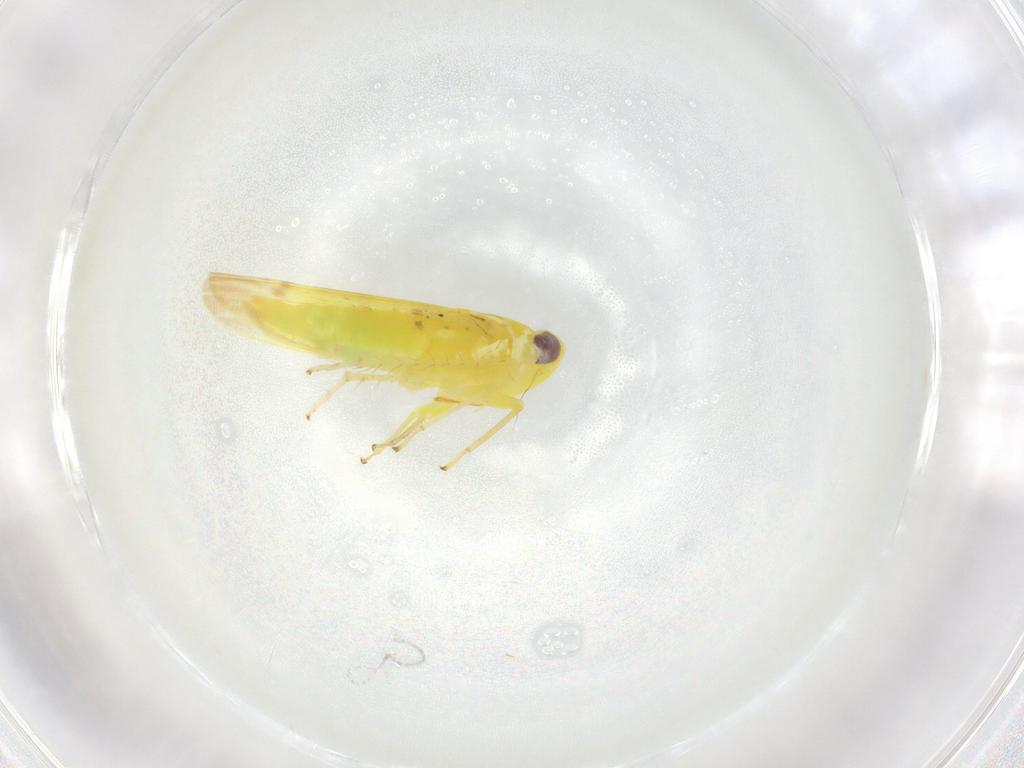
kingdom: Animalia
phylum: Arthropoda
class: Insecta
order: Hemiptera
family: Cicadellidae
